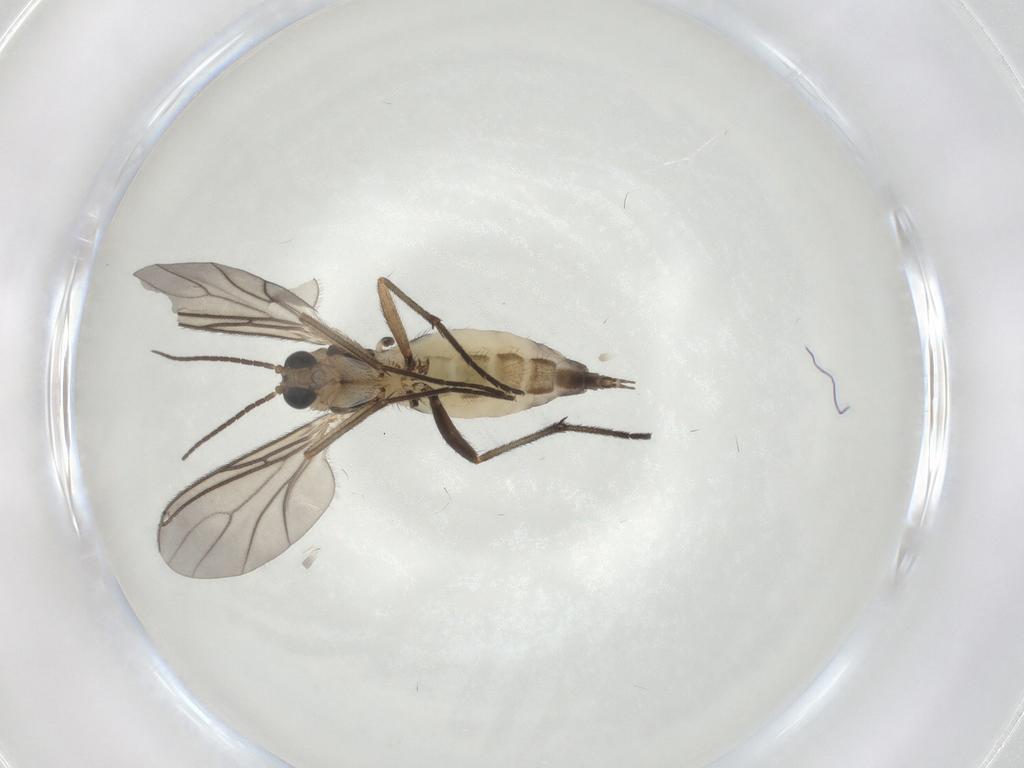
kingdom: Animalia
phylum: Arthropoda
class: Insecta
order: Diptera
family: Sciaridae
